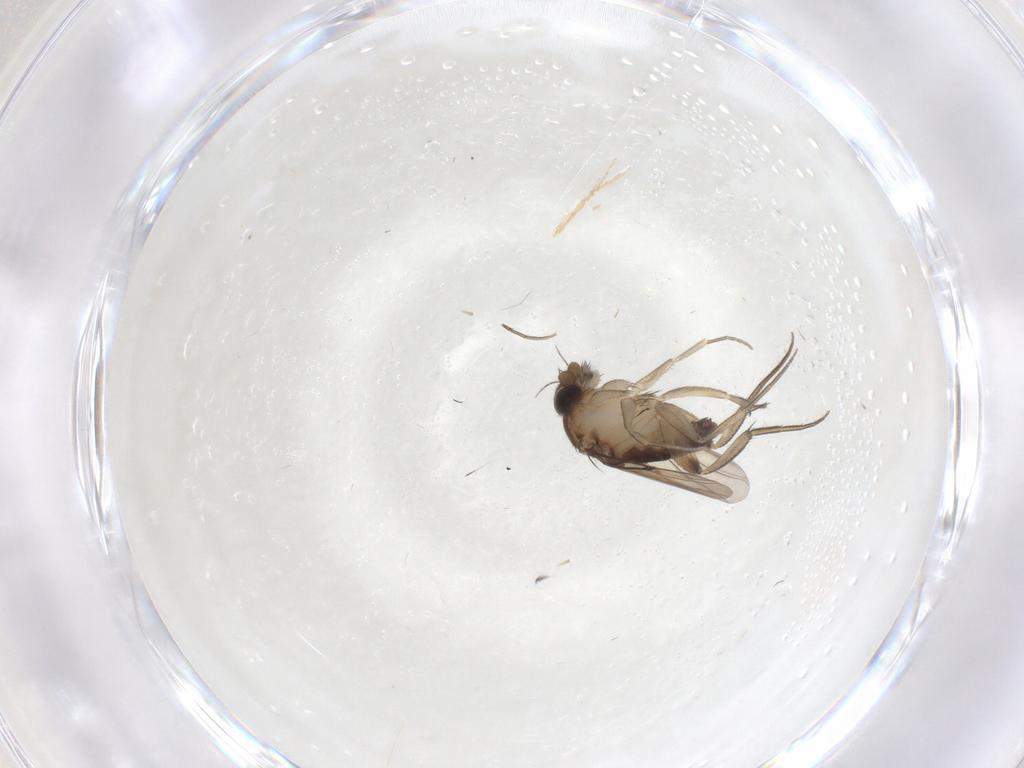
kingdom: Animalia
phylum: Arthropoda
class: Insecta
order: Diptera
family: Phoridae
